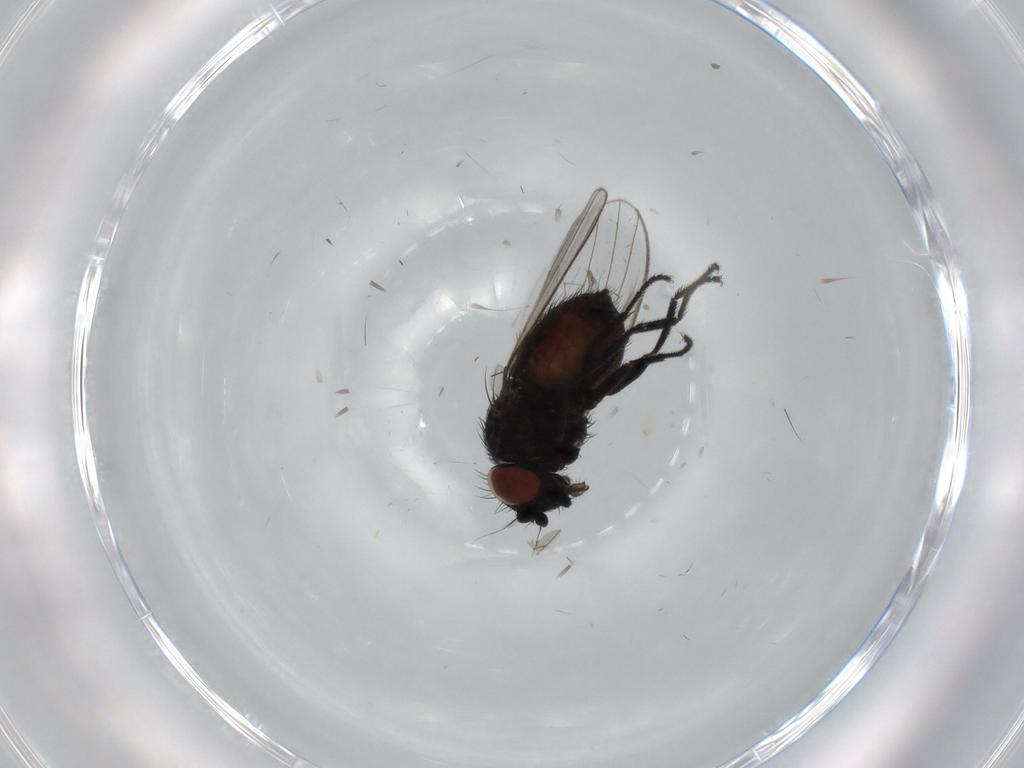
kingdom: Animalia
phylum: Arthropoda
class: Insecta
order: Diptera
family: Milichiidae
